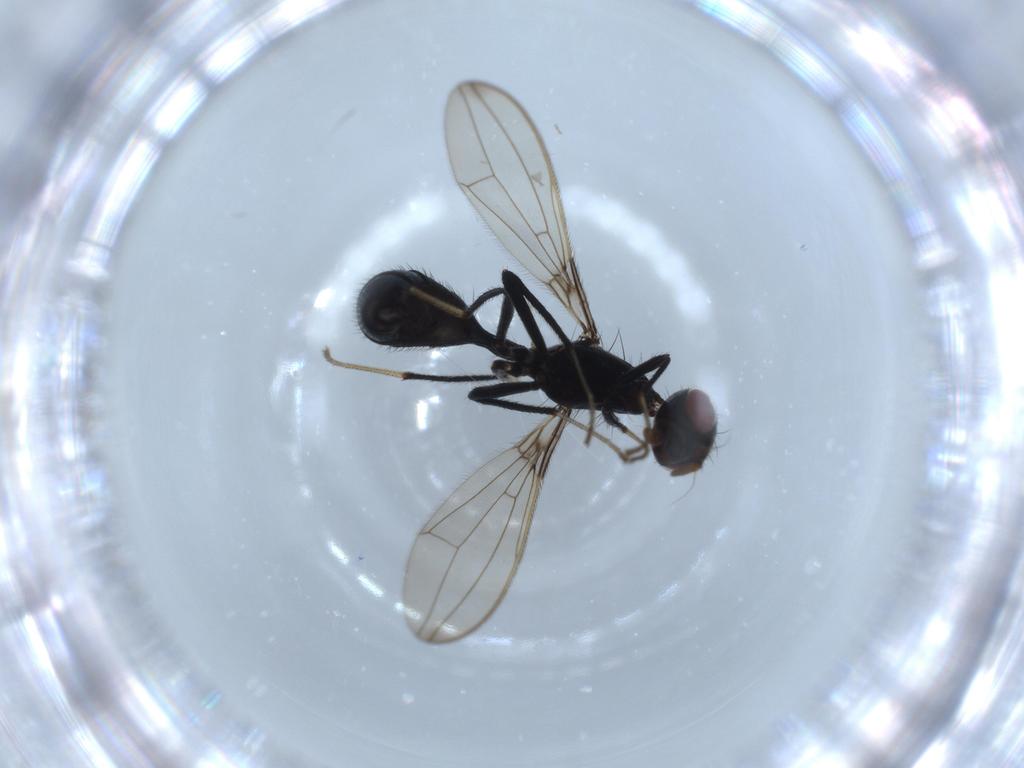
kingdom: Animalia
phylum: Arthropoda
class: Insecta
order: Diptera
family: Richardiidae
